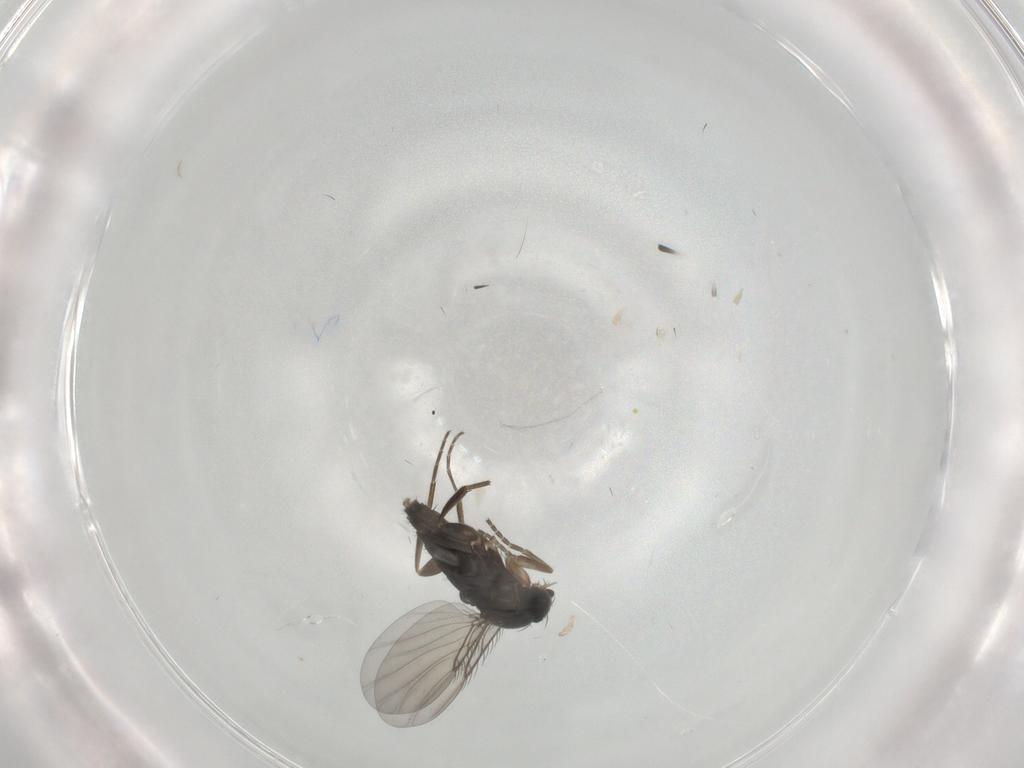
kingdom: Animalia
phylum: Arthropoda
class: Insecta
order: Diptera
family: Phoridae
